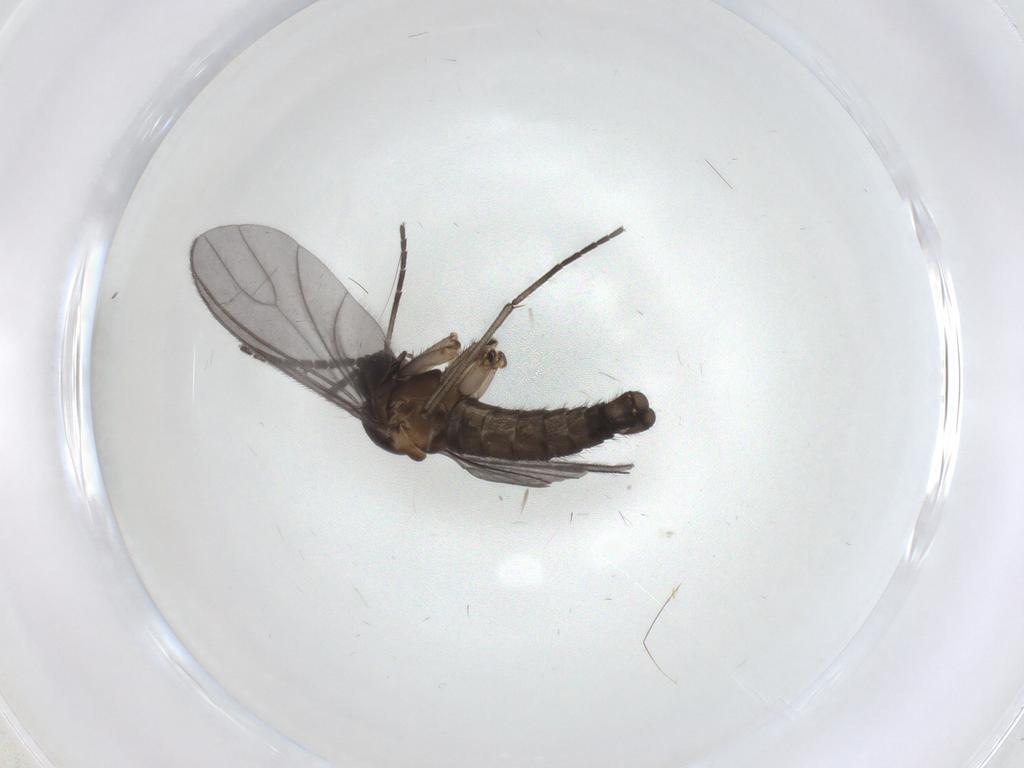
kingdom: Animalia
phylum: Arthropoda
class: Insecta
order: Diptera
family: Sciaridae
